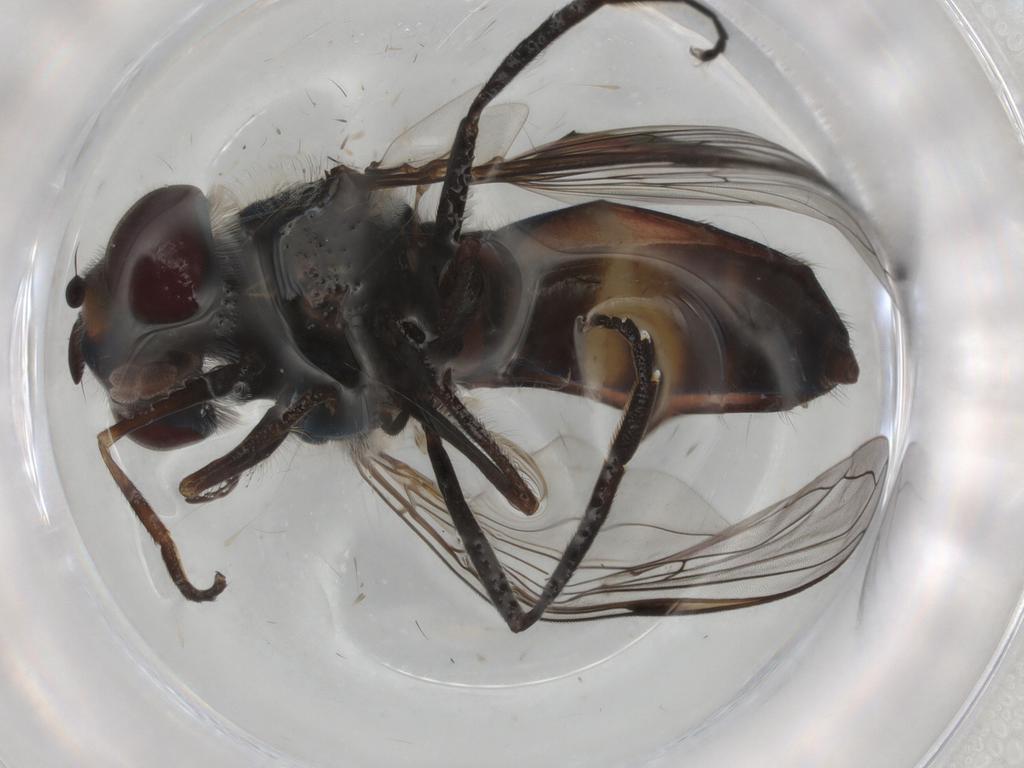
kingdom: Animalia
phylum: Arthropoda
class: Insecta
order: Diptera
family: Syrphidae
